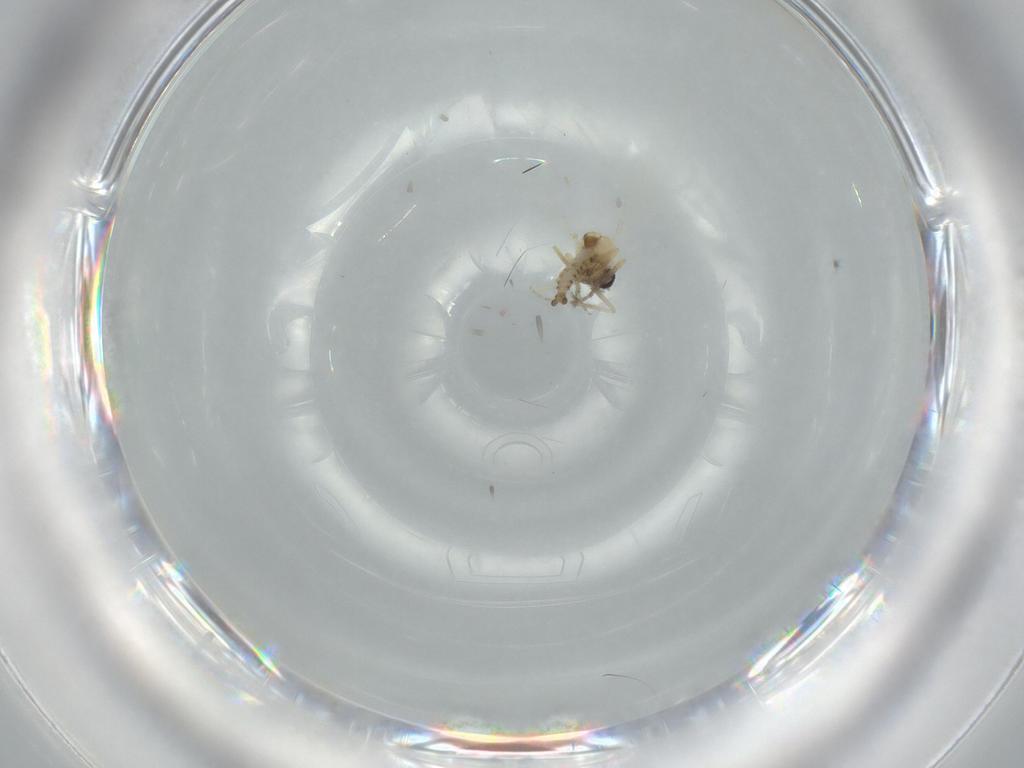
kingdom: Animalia
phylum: Arthropoda
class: Insecta
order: Diptera
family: Ceratopogonidae
